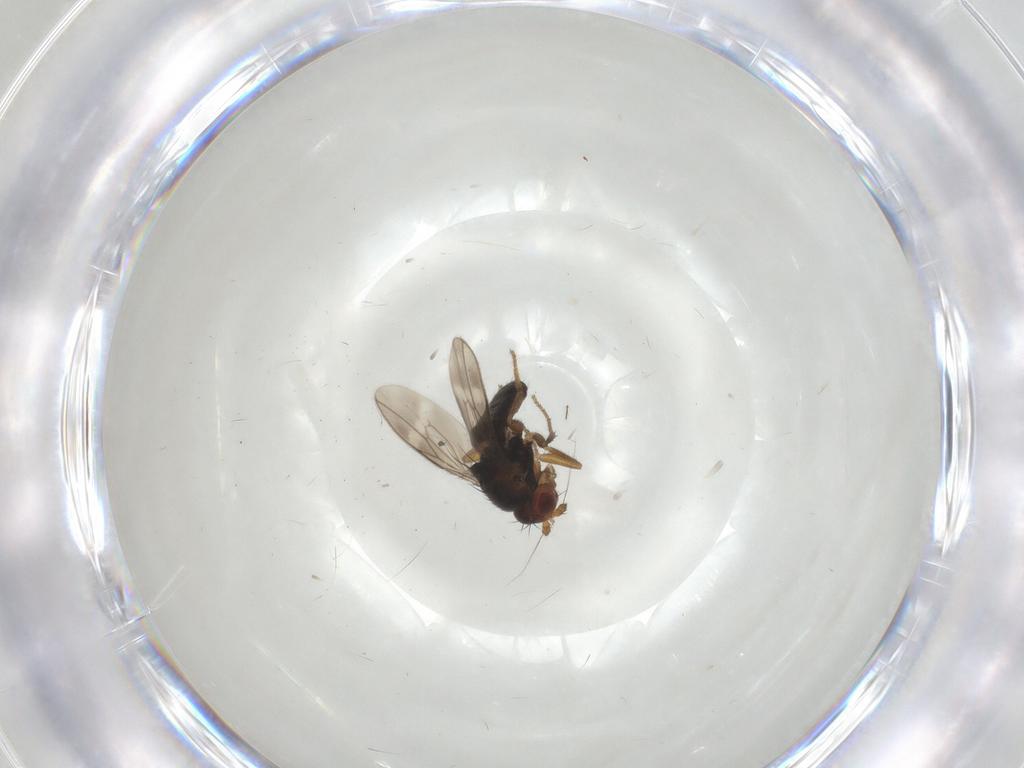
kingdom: Animalia
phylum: Arthropoda
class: Insecta
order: Diptera
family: Sphaeroceridae
